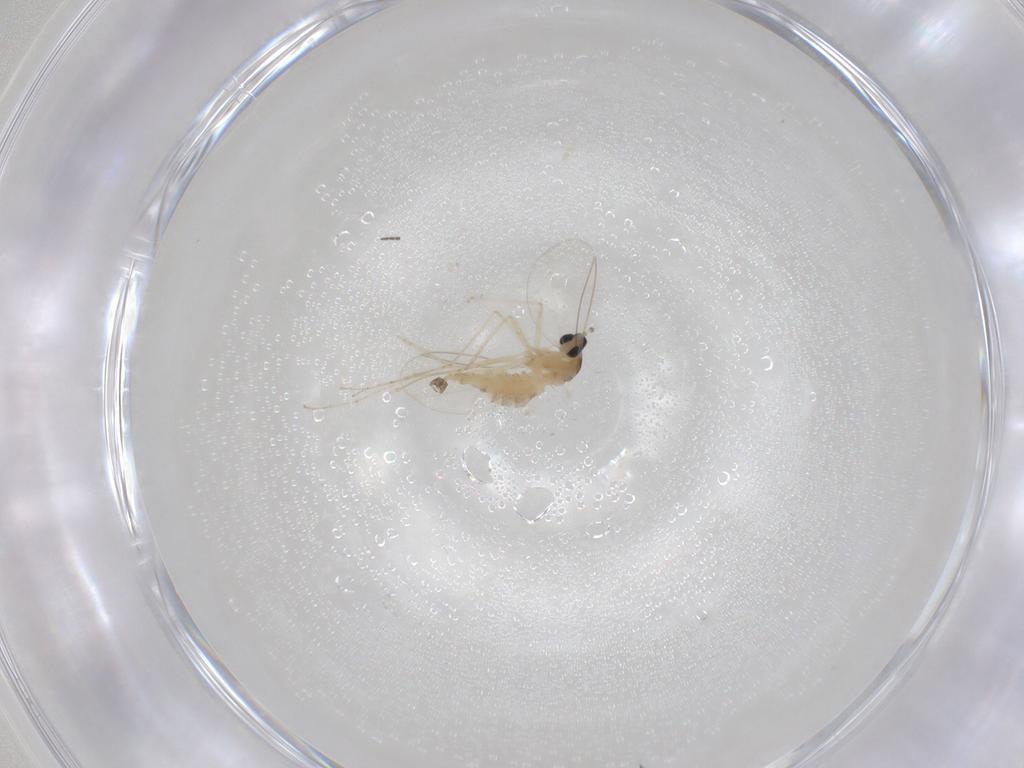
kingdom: Animalia
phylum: Arthropoda
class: Insecta
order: Diptera
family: Cecidomyiidae
